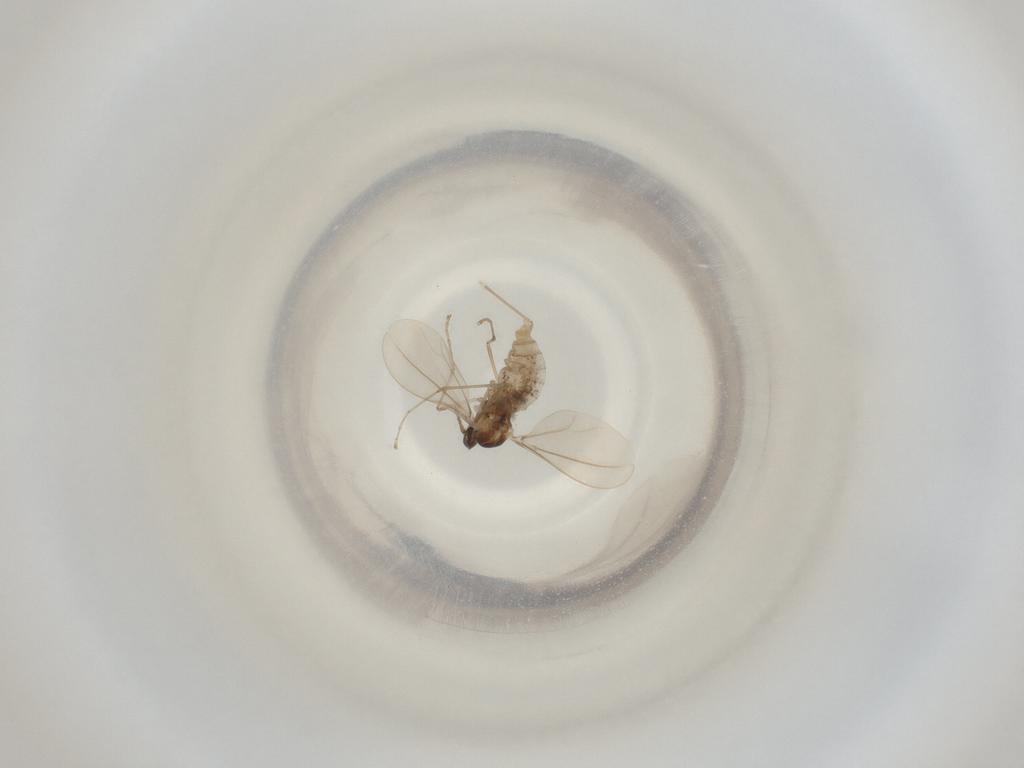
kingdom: Animalia
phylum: Arthropoda
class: Insecta
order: Diptera
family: Cecidomyiidae
